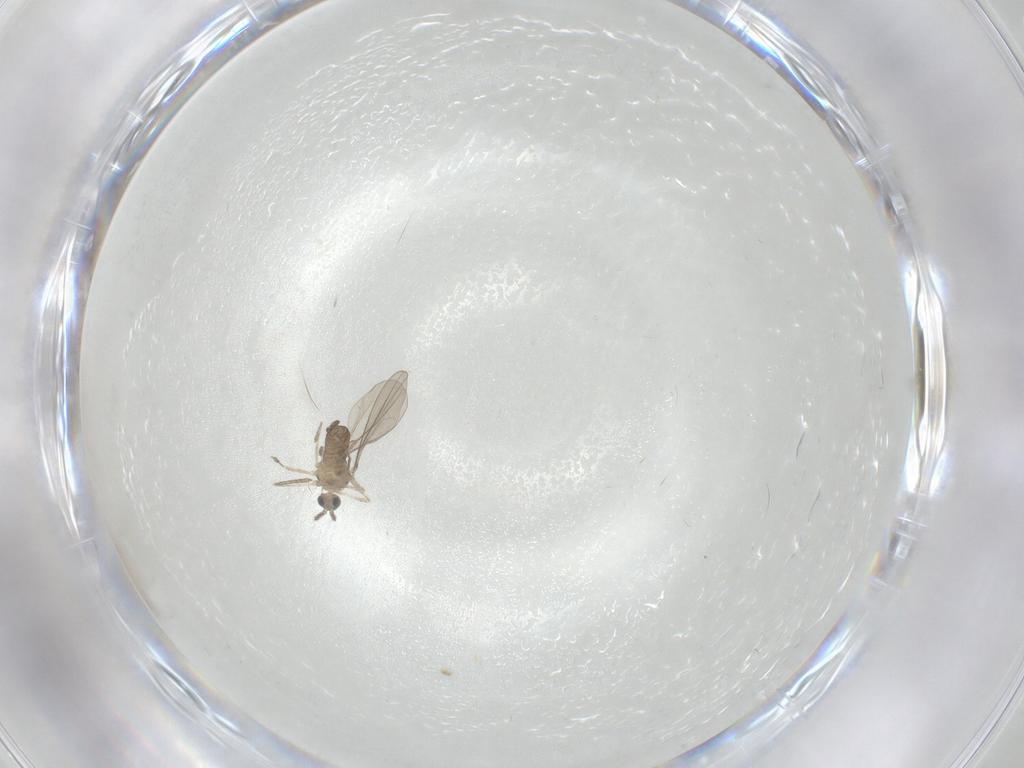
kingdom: Animalia
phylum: Arthropoda
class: Insecta
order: Diptera
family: Cecidomyiidae
